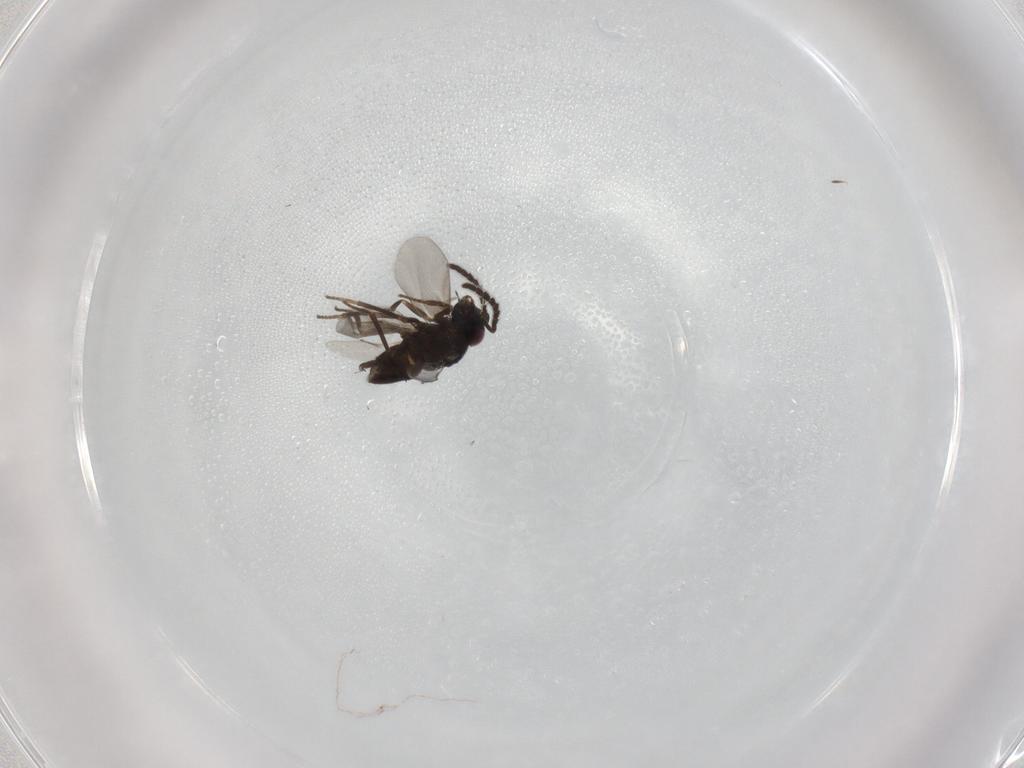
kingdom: Animalia
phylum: Arthropoda
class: Insecta
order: Hymenoptera
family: Encyrtidae
